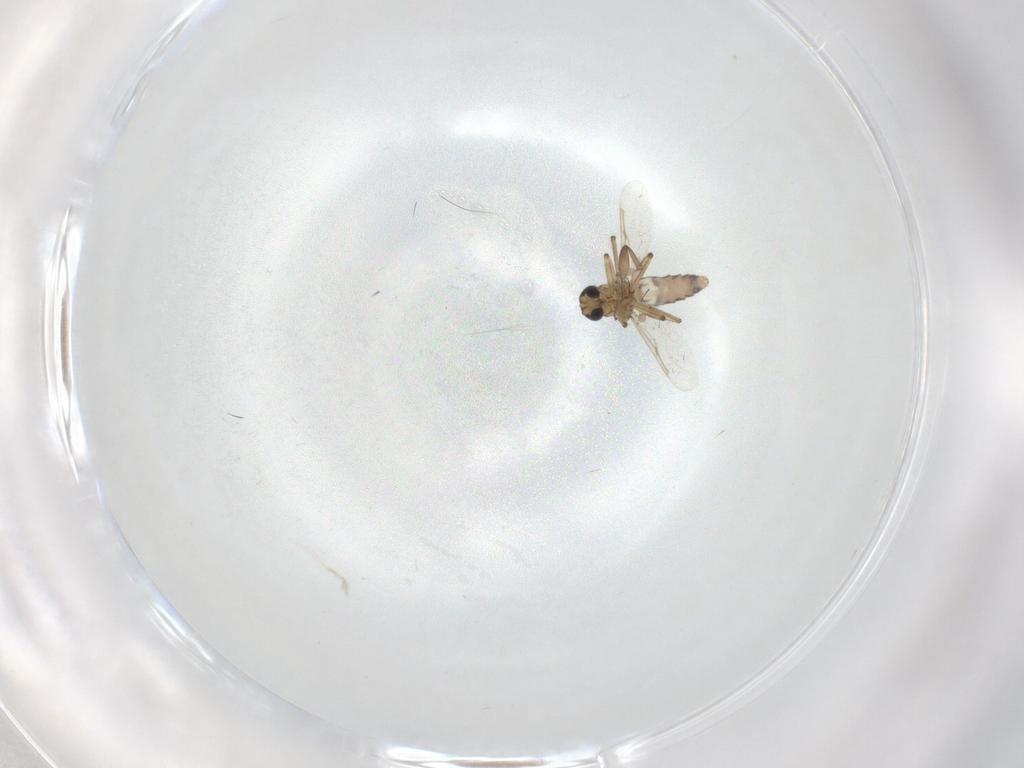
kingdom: Animalia
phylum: Arthropoda
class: Insecta
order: Diptera
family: Ceratopogonidae
